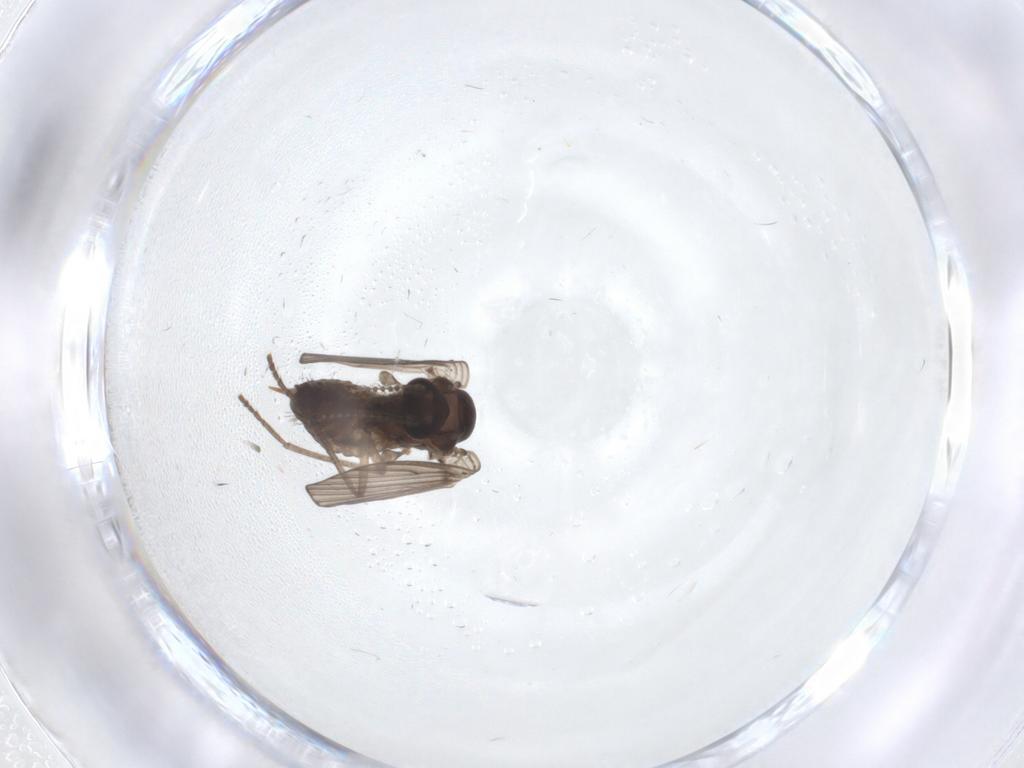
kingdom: Animalia
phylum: Arthropoda
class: Insecta
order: Diptera
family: Psychodidae
